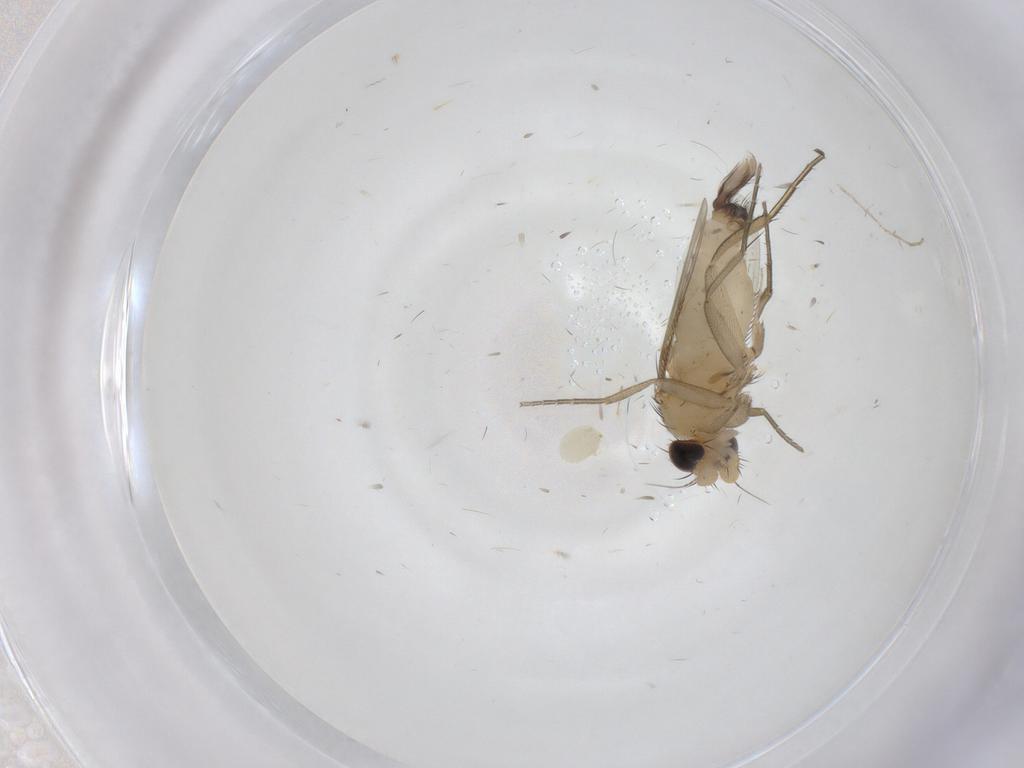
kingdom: Animalia
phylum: Arthropoda
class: Insecta
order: Diptera
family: Phoridae
